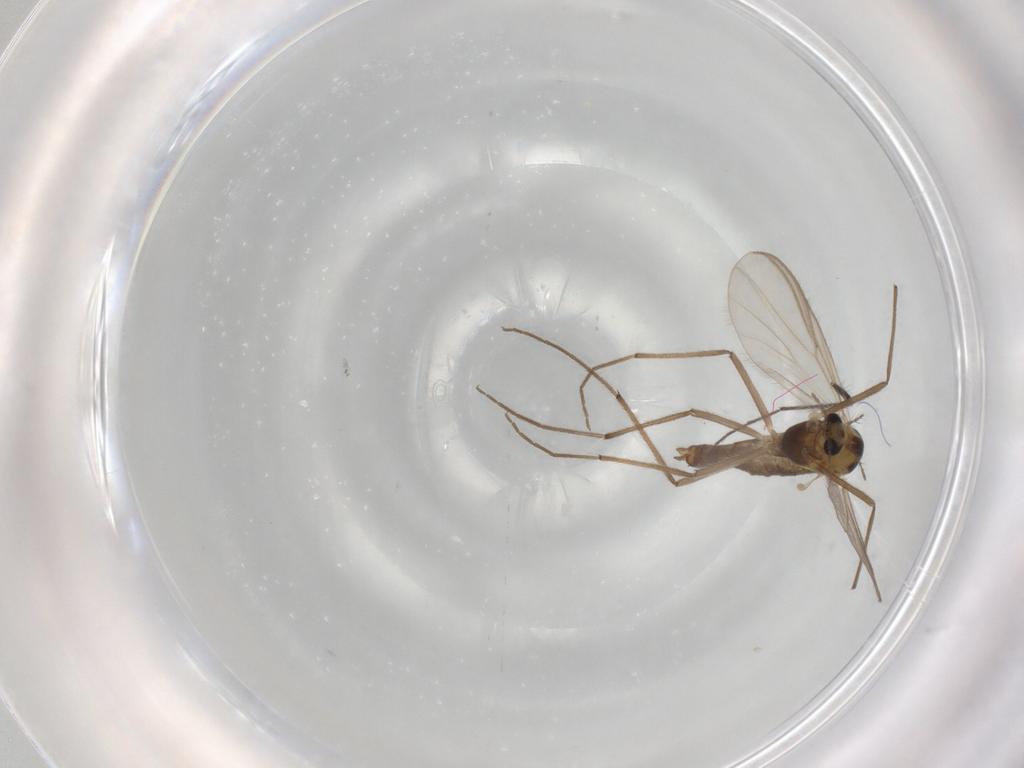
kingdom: Animalia
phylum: Arthropoda
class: Insecta
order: Diptera
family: Chironomidae
